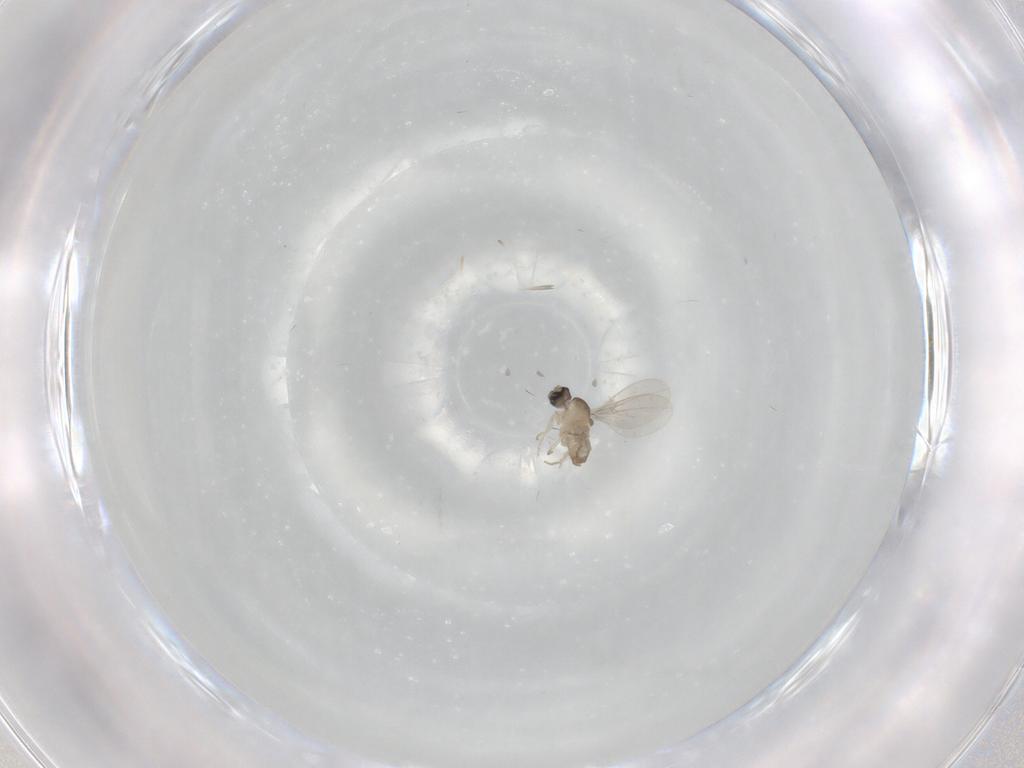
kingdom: Animalia
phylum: Arthropoda
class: Insecta
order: Diptera
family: Cecidomyiidae
